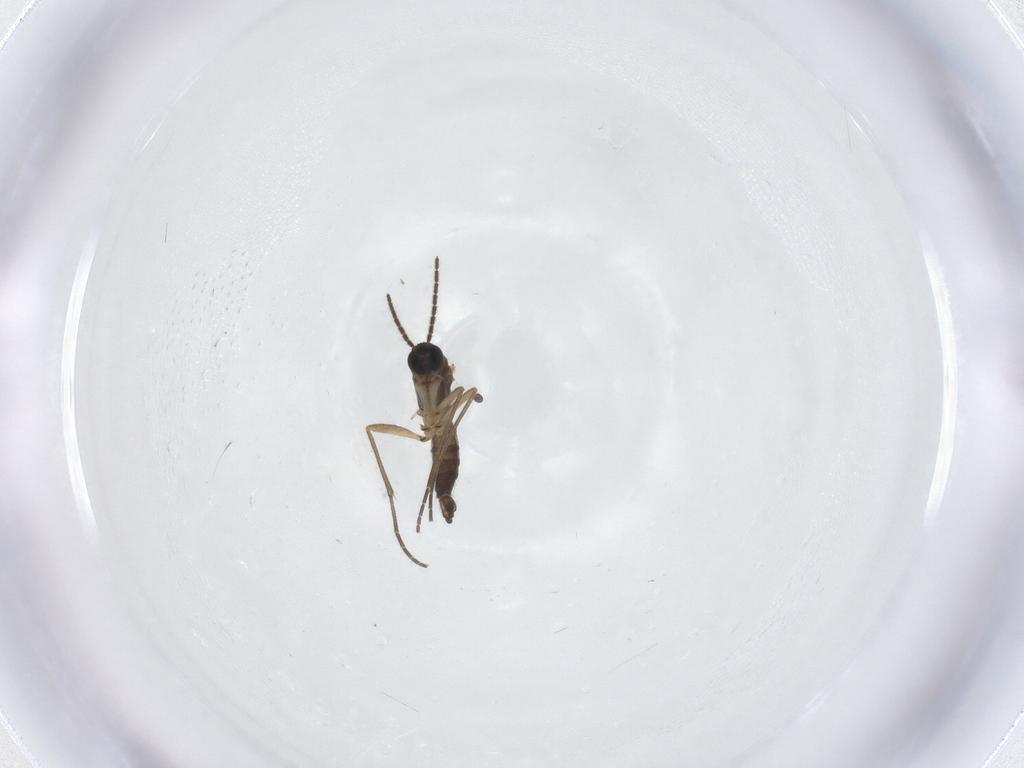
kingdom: Animalia
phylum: Arthropoda
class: Insecta
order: Diptera
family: Sciaridae
